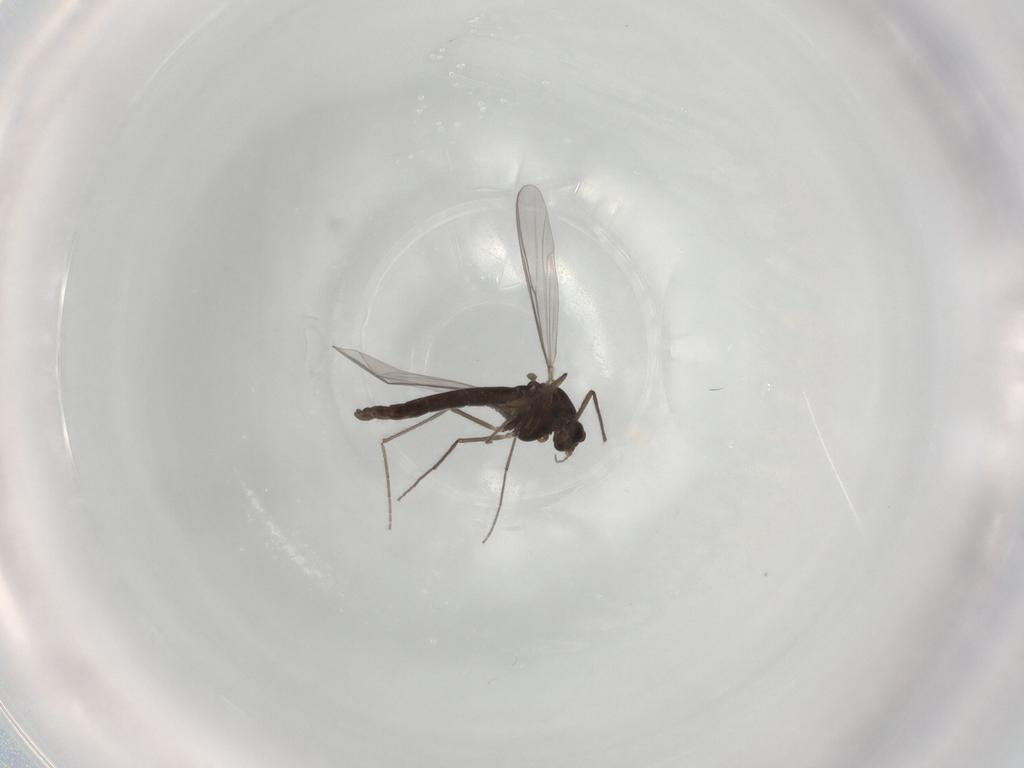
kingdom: Animalia
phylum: Arthropoda
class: Insecta
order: Diptera
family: Chironomidae
